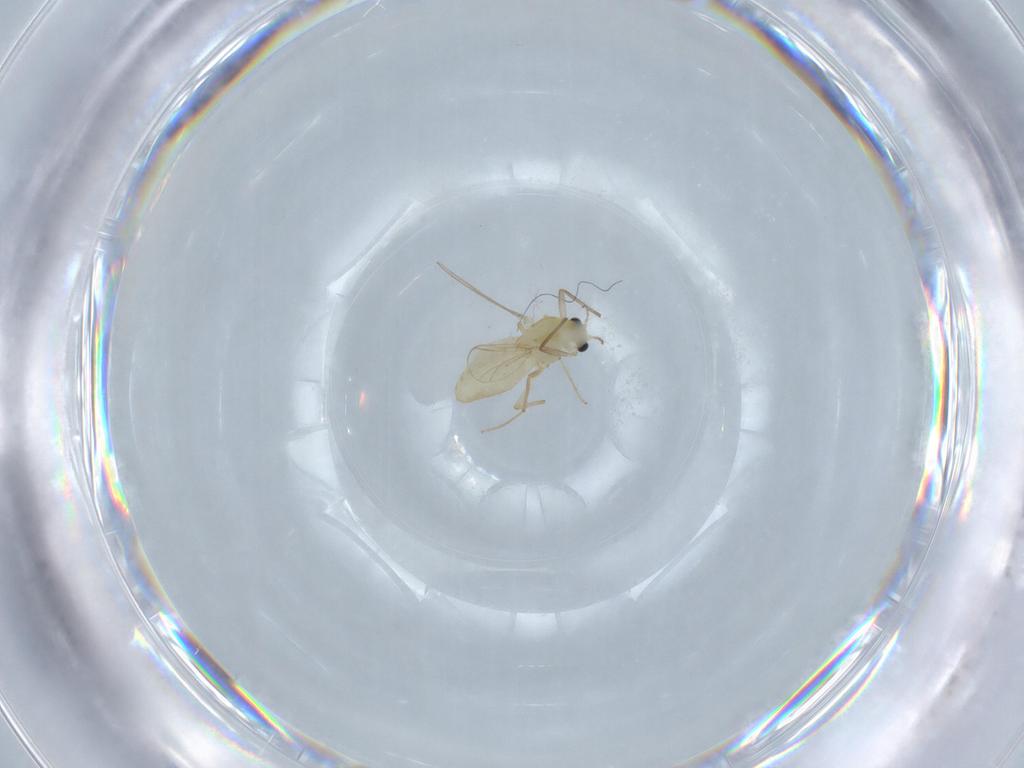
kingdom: Animalia
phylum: Arthropoda
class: Insecta
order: Diptera
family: Chironomidae
